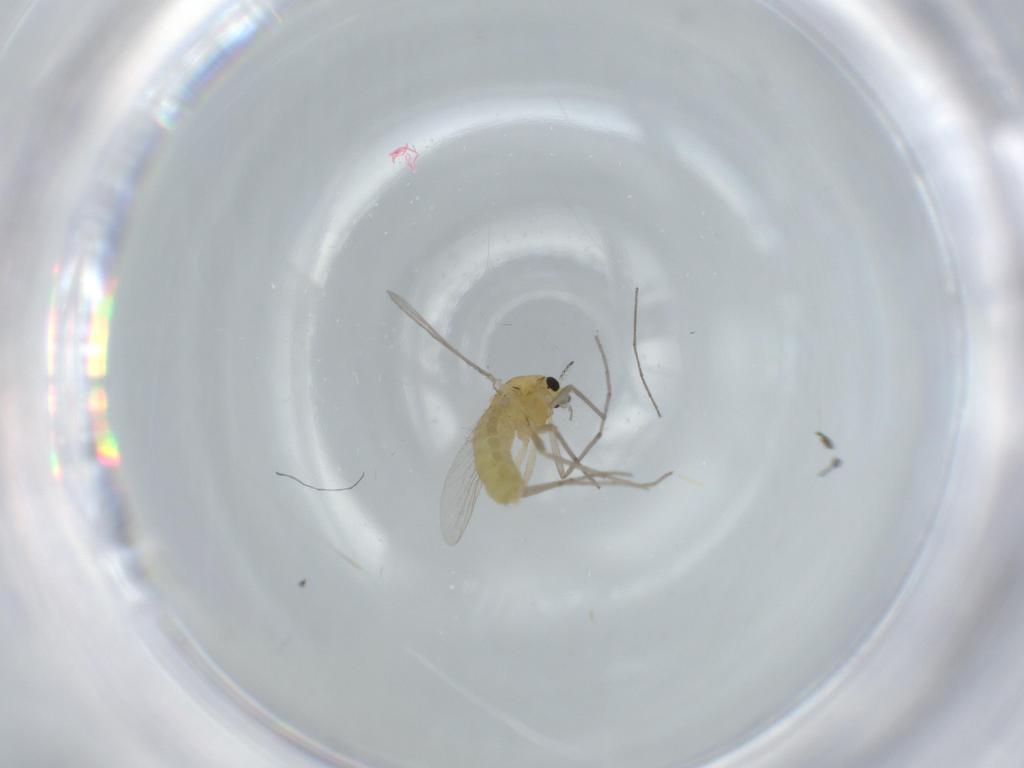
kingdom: Animalia
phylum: Arthropoda
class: Insecta
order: Diptera
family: Chironomidae
